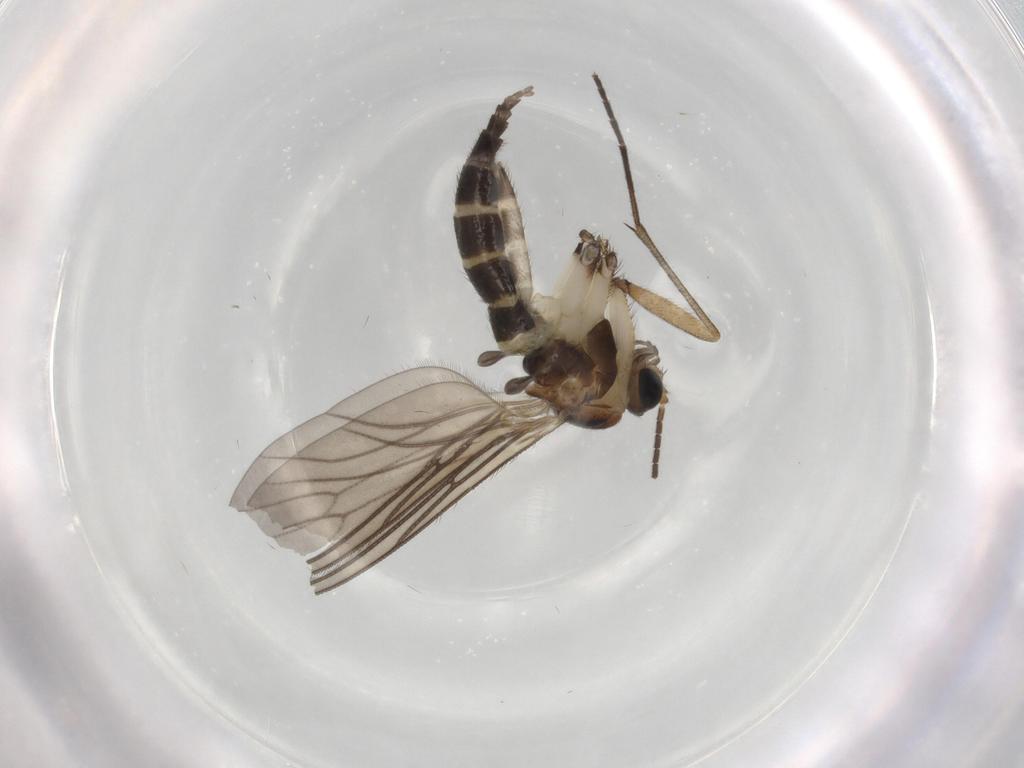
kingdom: Animalia
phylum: Arthropoda
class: Insecta
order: Diptera
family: Sciaridae
